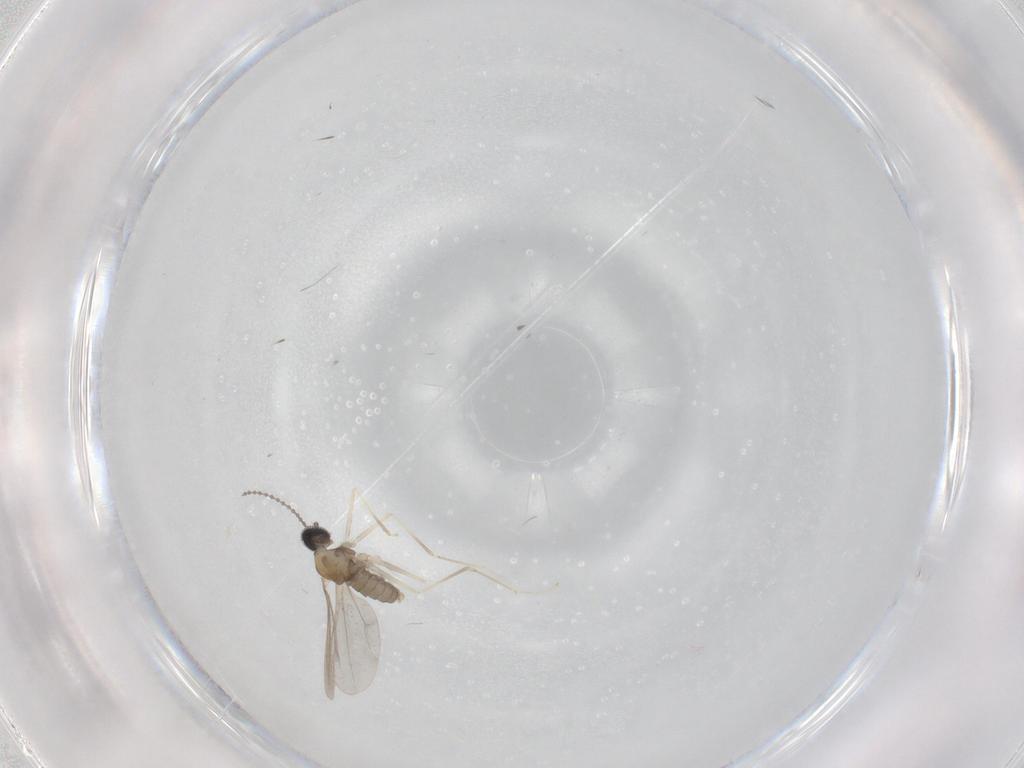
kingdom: Animalia
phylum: Arthropoda
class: Insecta
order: Diptera
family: Cecidomyiidae
